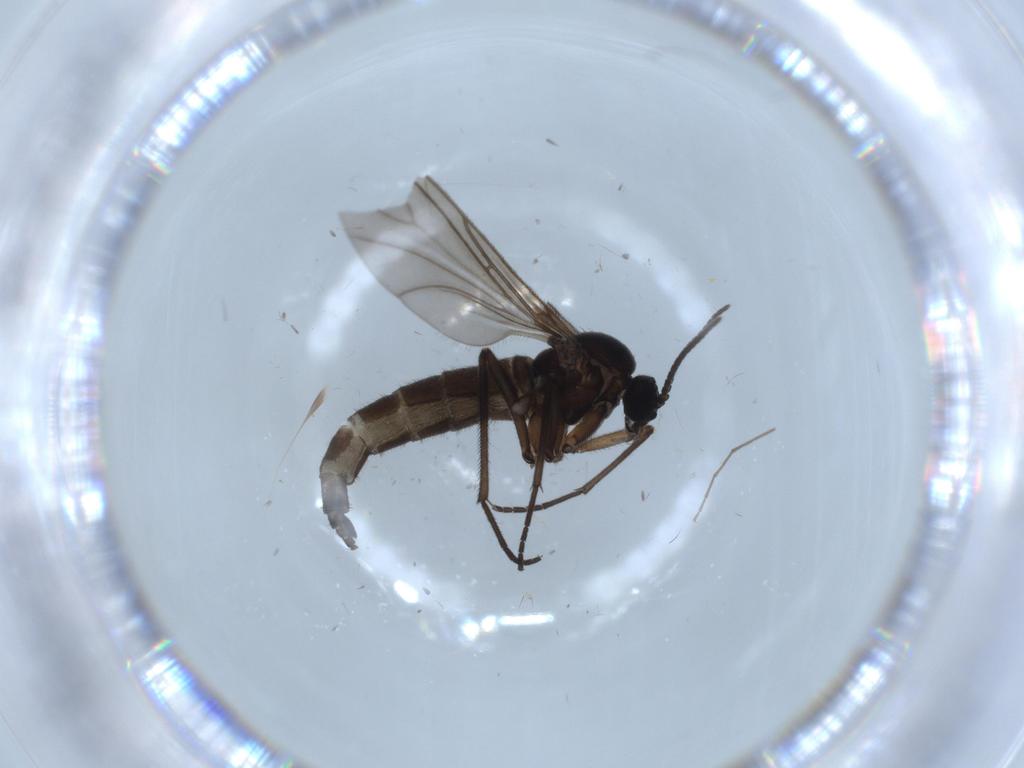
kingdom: Animalia
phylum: Arthropoda
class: Insecta
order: Diptera
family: Sciaridae
